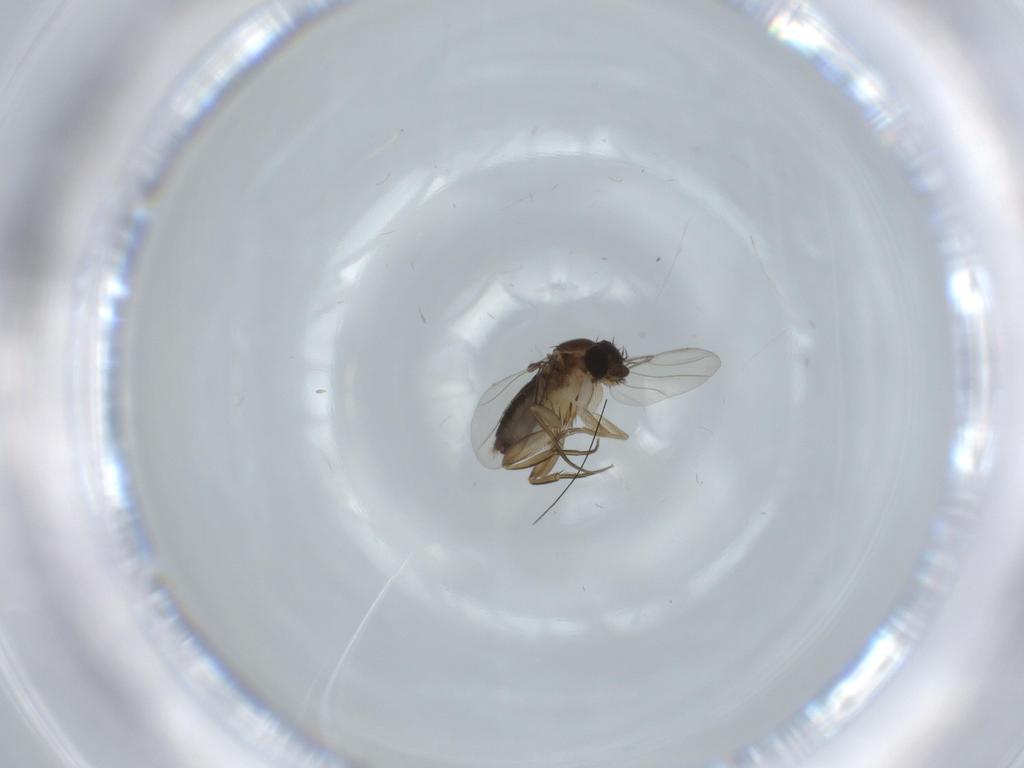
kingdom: Animalia
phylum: Arthropoda
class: Insecta
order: Diptera
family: Phoridae
